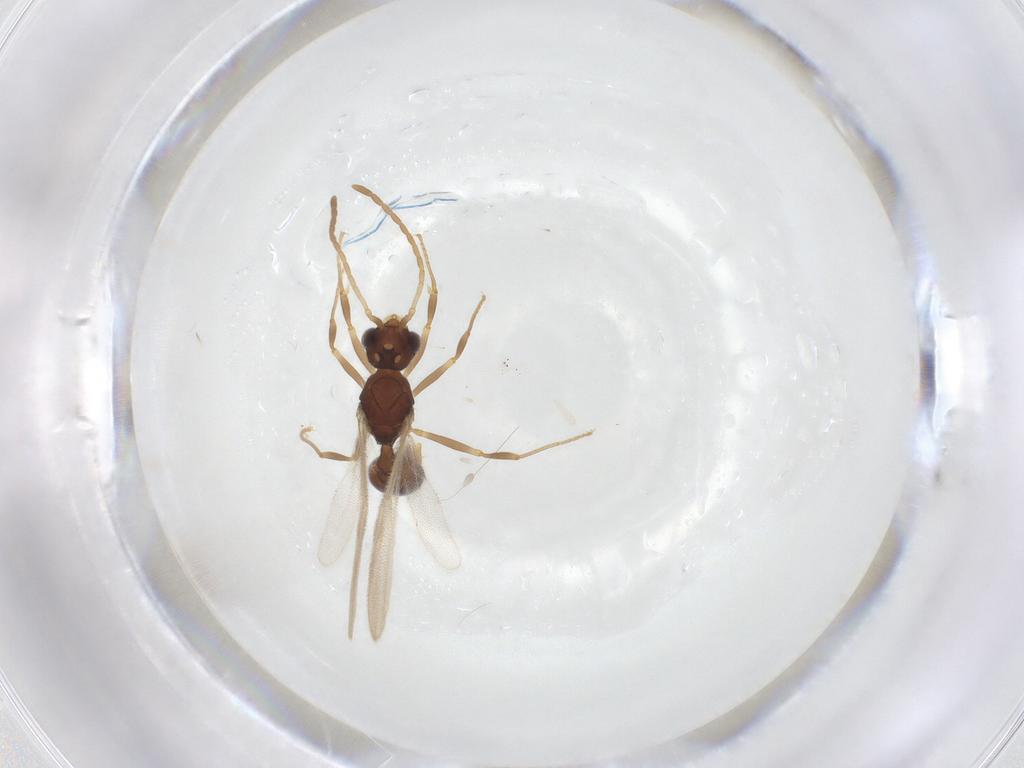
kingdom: Animalia
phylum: Arthropoda
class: Insecta
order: Hymenoptera
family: Formicidae
